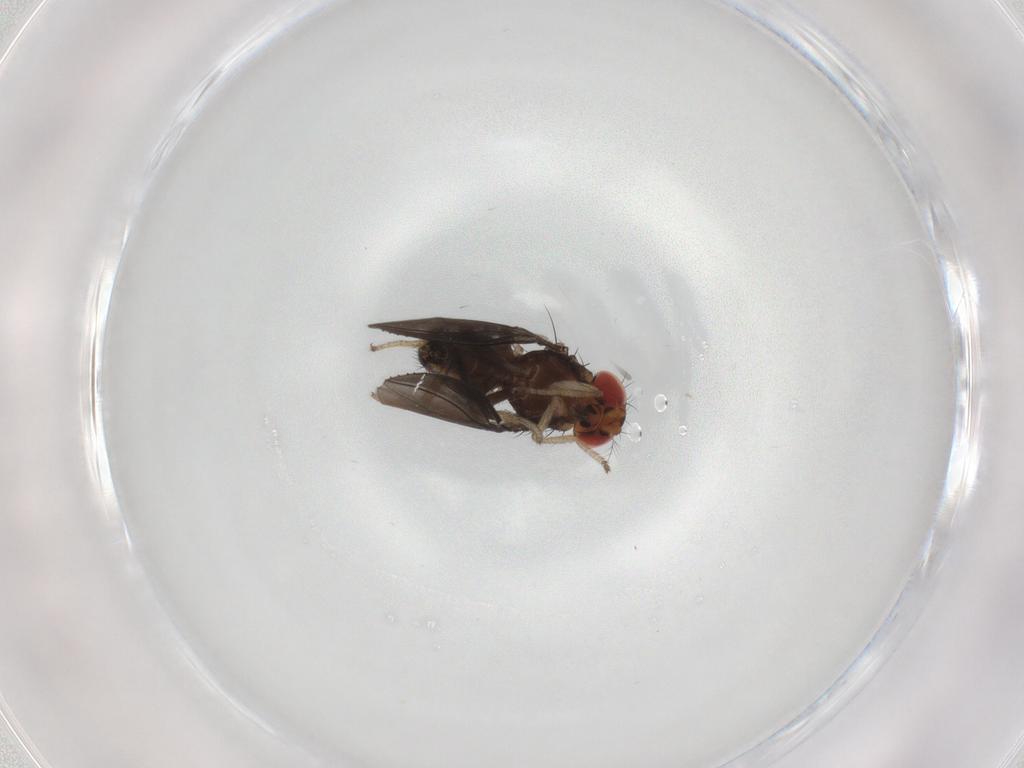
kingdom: Animalia
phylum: Arthropoda
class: Insecta
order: Diptera
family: Drosophilidae
